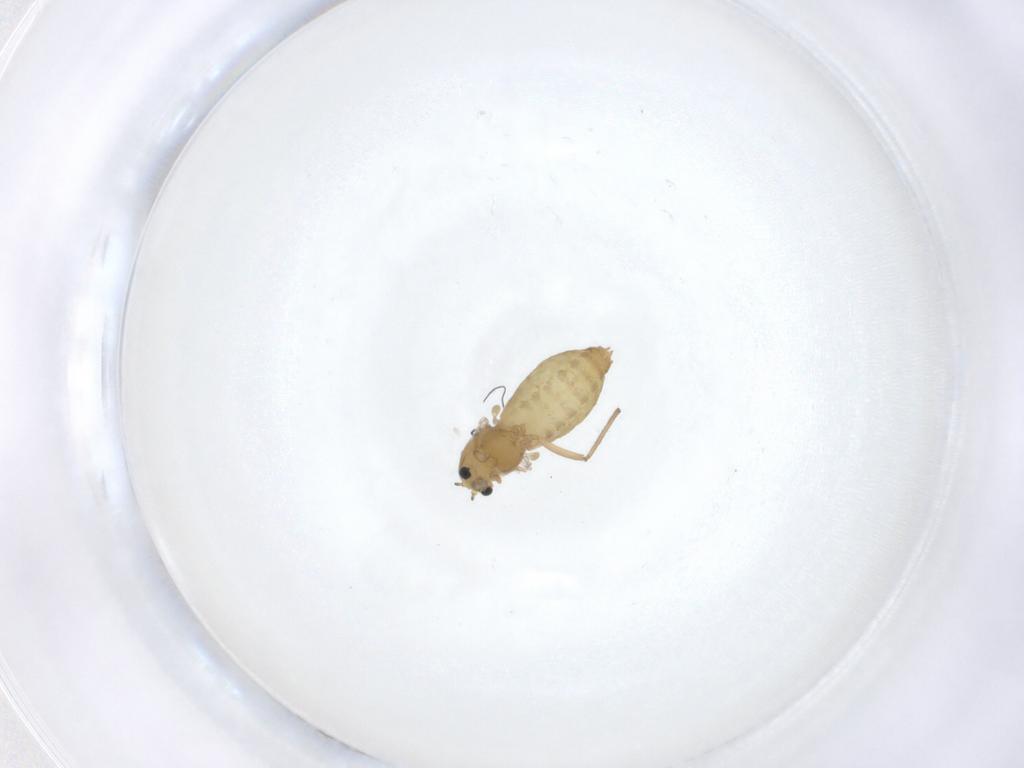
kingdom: Animalia
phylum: Arthropoda
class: Insecta
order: Diptera
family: Chironomidae
